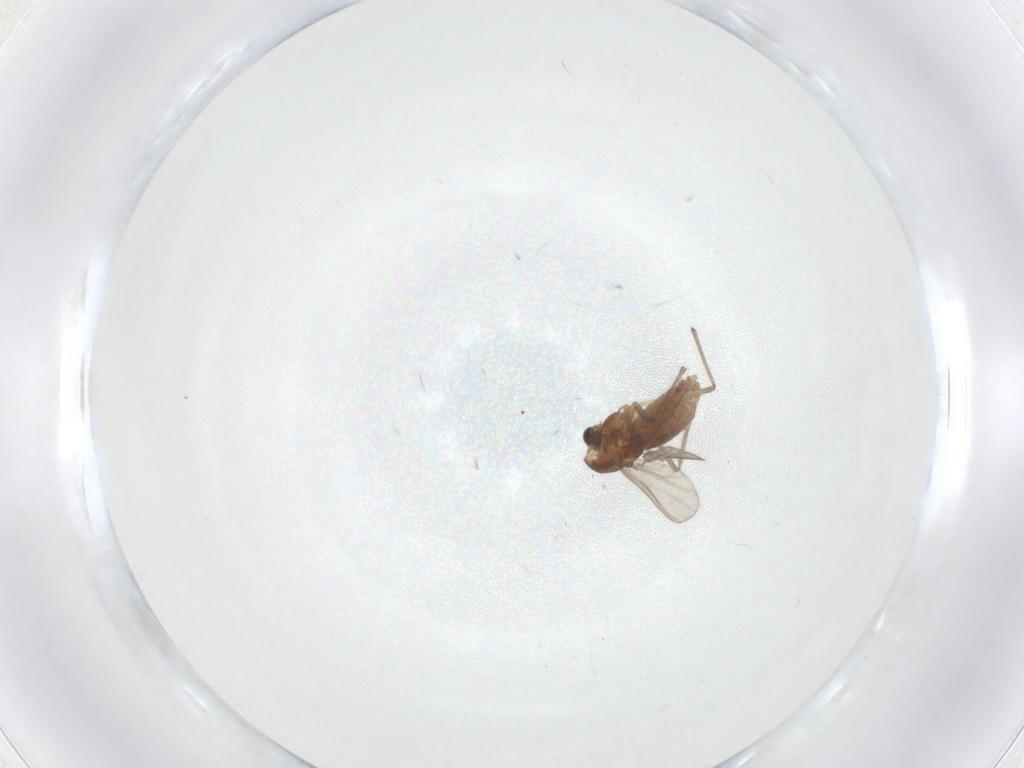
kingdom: Animalia
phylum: Arthropoda
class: Insecta
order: Diptera
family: Chironomidae
